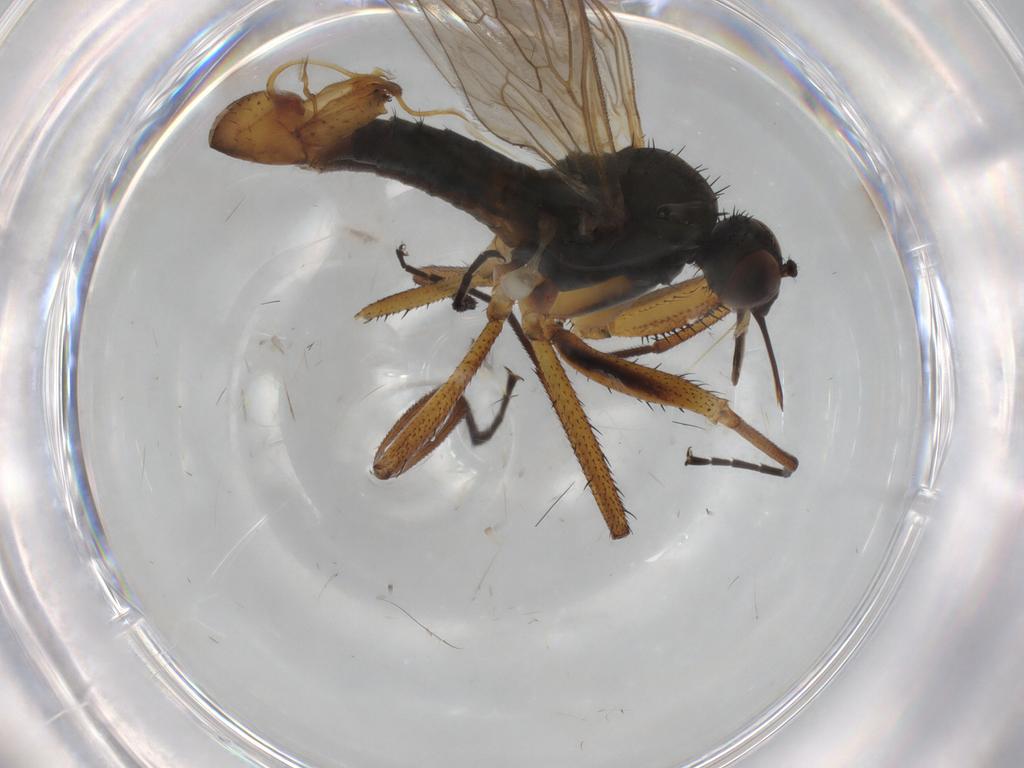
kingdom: Animalia
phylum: Arthropoda
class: Insecta
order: Diptera
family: Empididae
